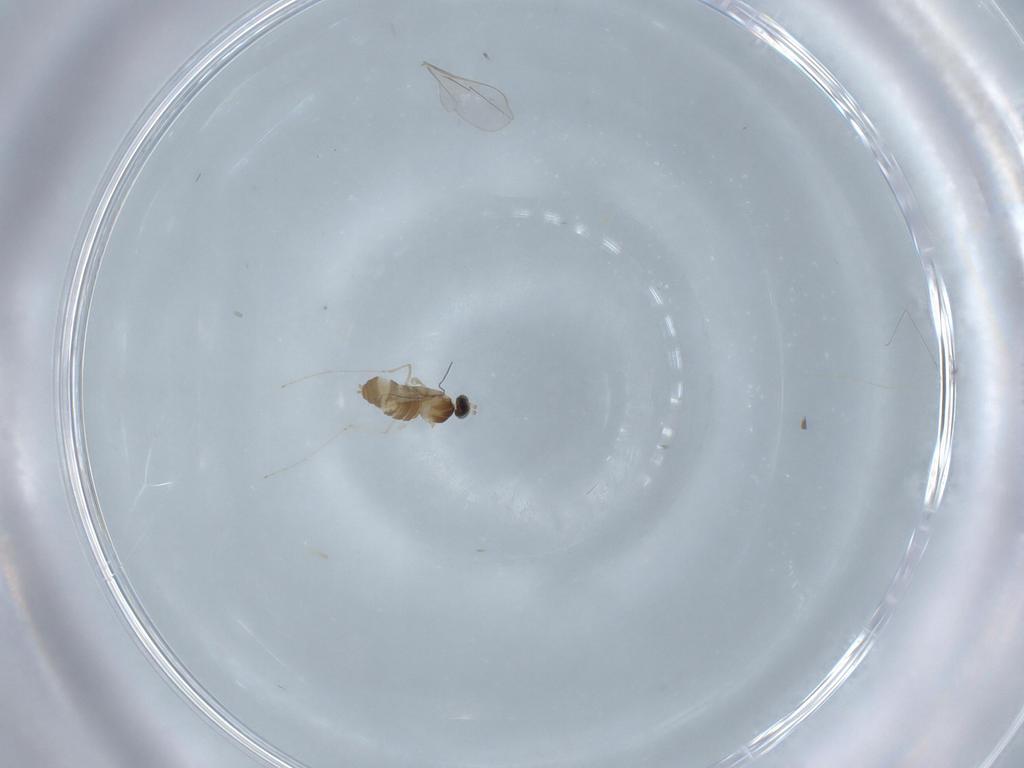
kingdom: Animalia
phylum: Arthropoda
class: Insecta
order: Diptera
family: Cecidomyiidae
